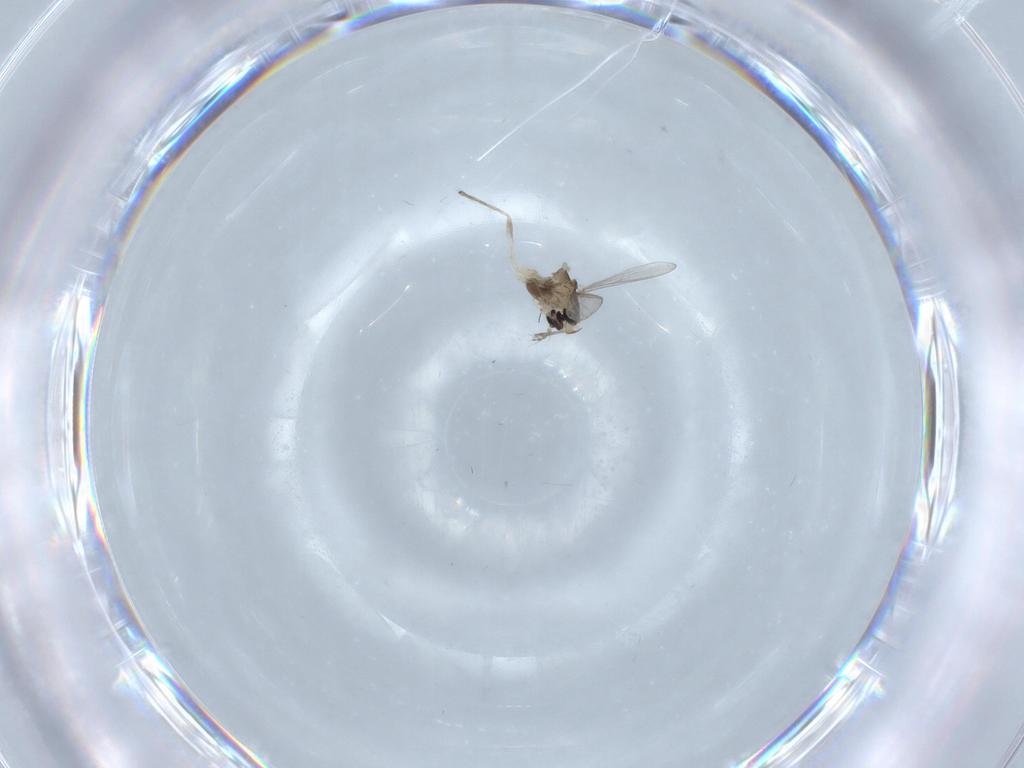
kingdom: Animalia
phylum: Arthropoda
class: Insecta
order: Diptera
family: Chironomidae
